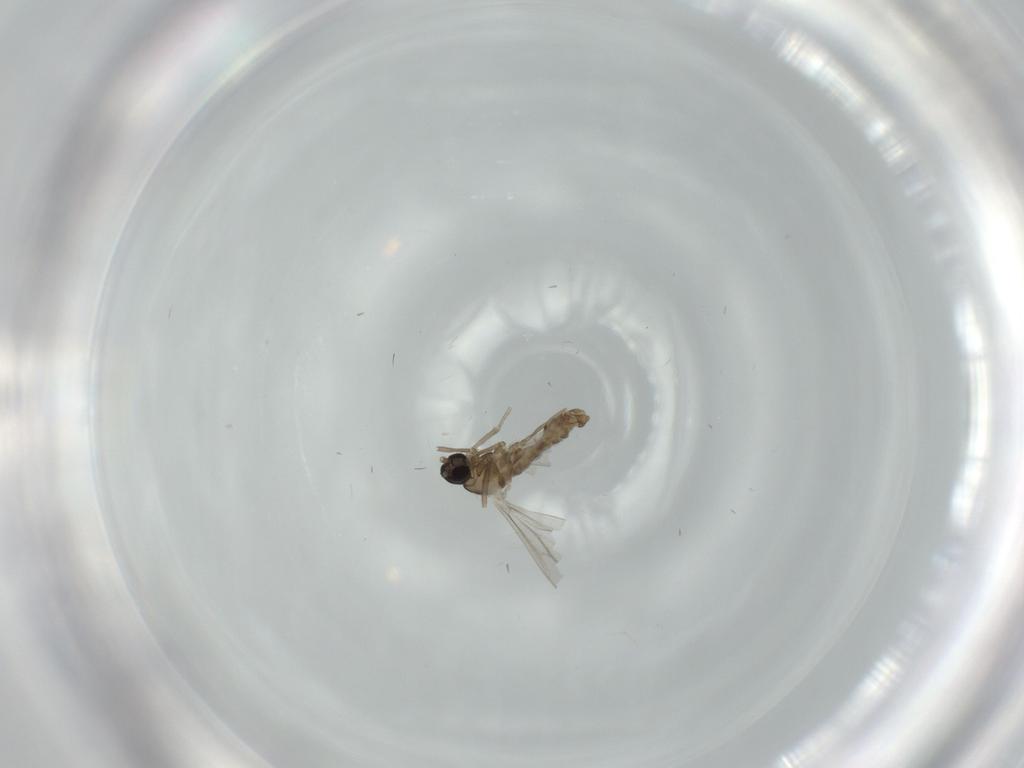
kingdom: Animalia
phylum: Arthropoda
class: Insecta
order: Diptera
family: Cecidomyiidae
